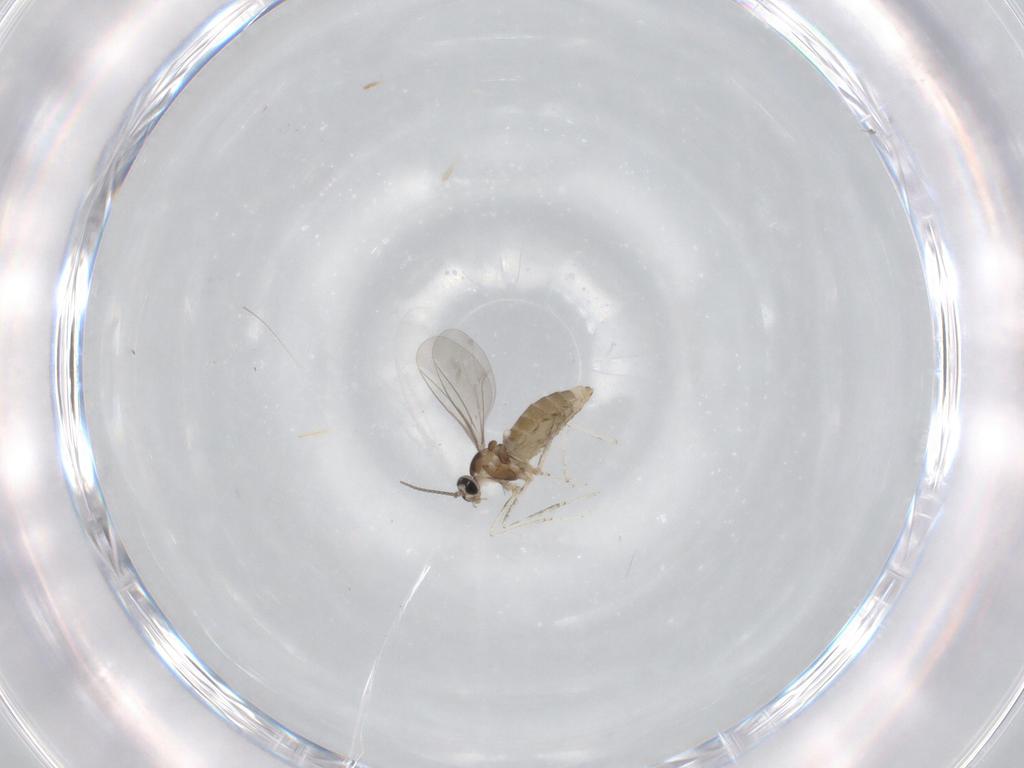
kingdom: Animalia
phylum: Arthropoda
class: Insecta
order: Diptera
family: Cecidomyiidae
